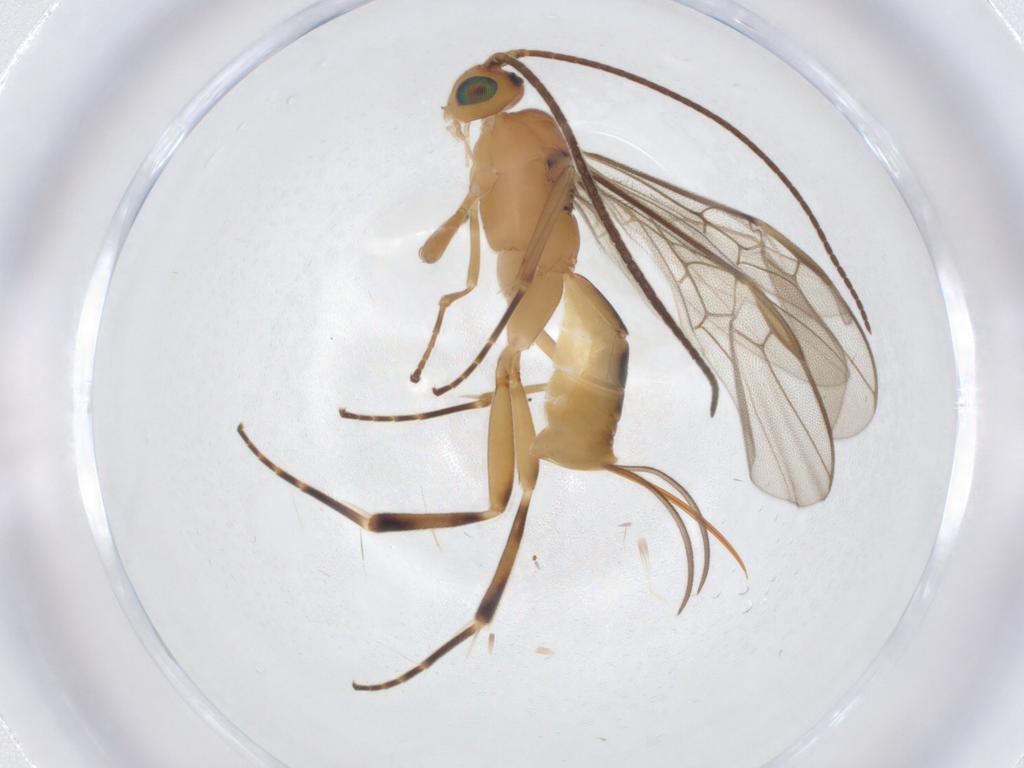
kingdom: Animalia
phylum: Arthropoda
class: Insecta
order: Hymenoptera
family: Braconidae
